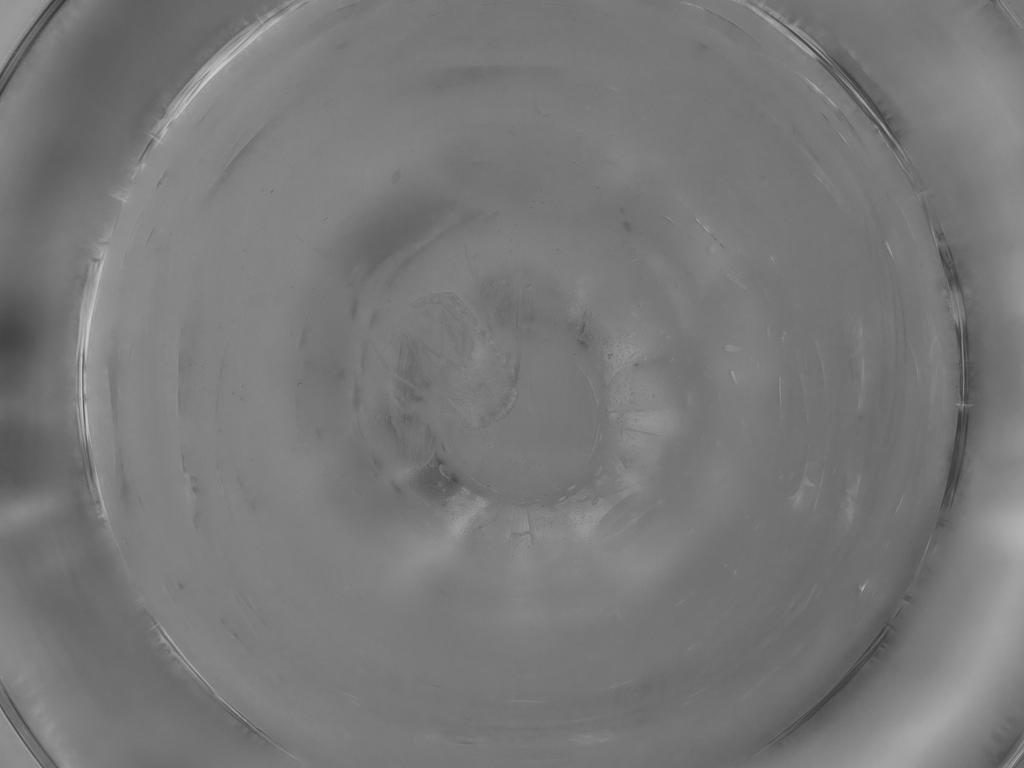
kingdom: Animalia
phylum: Arthropoda
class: Insecta
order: Diptera
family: Chironomidae
